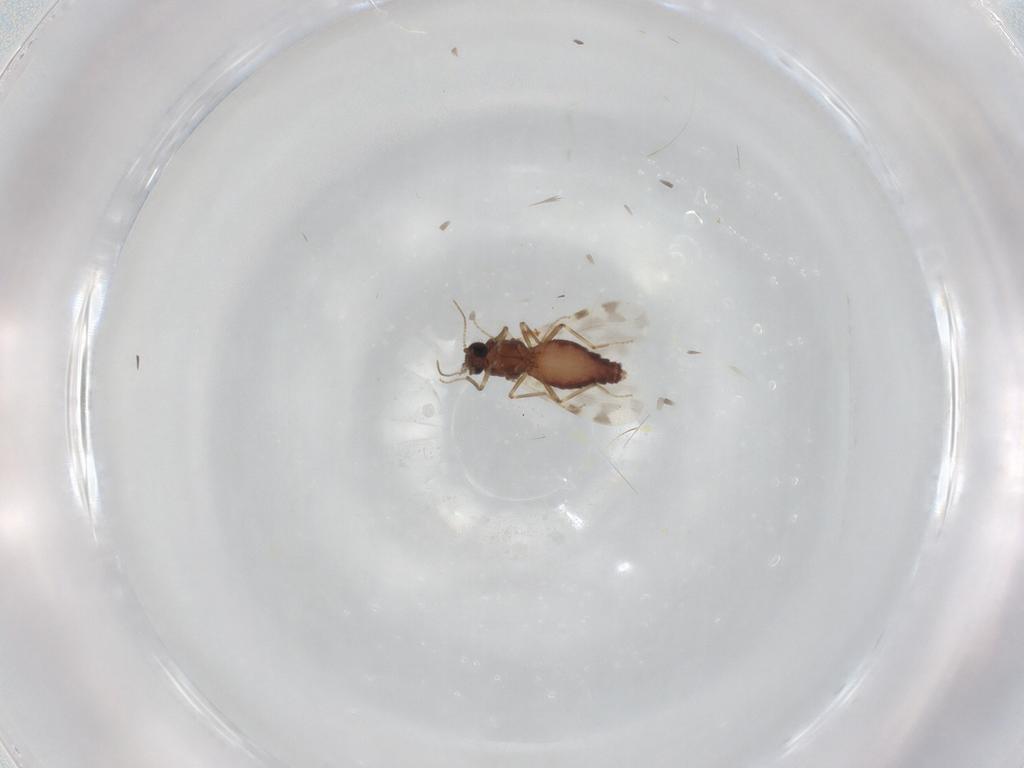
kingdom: Animalia
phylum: Arthropoda
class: Insecta
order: Diptera
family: Ceratopogonidae
